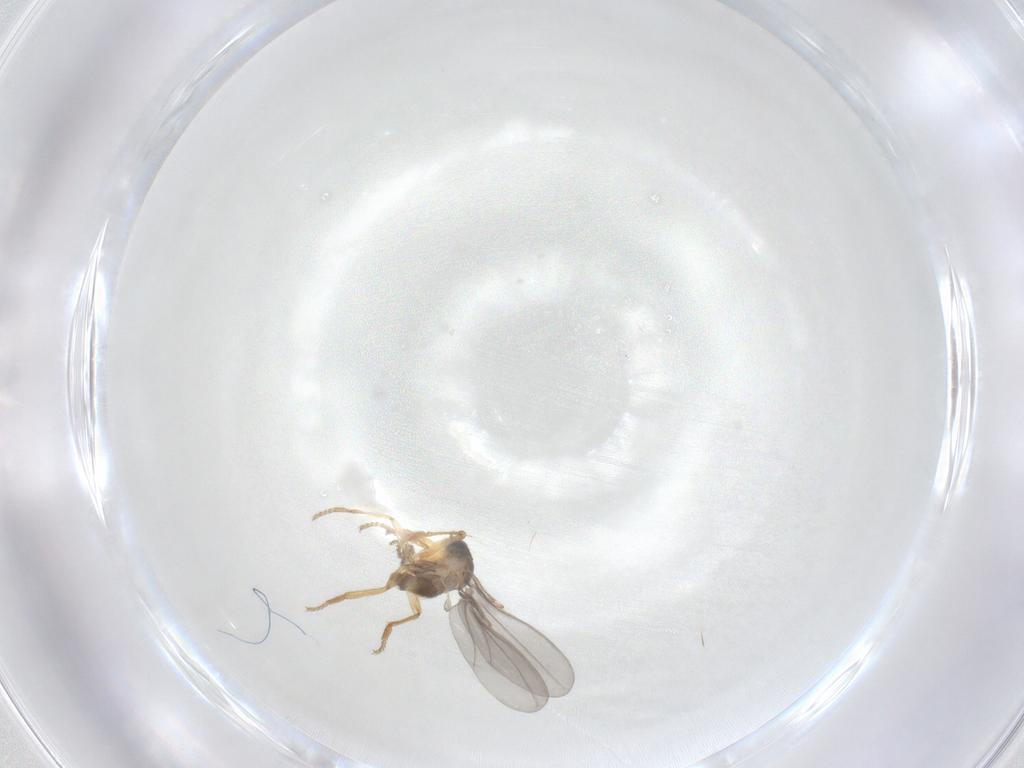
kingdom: Animalia
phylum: Arthropoda
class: Insecta
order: Diptera
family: Phoridae
